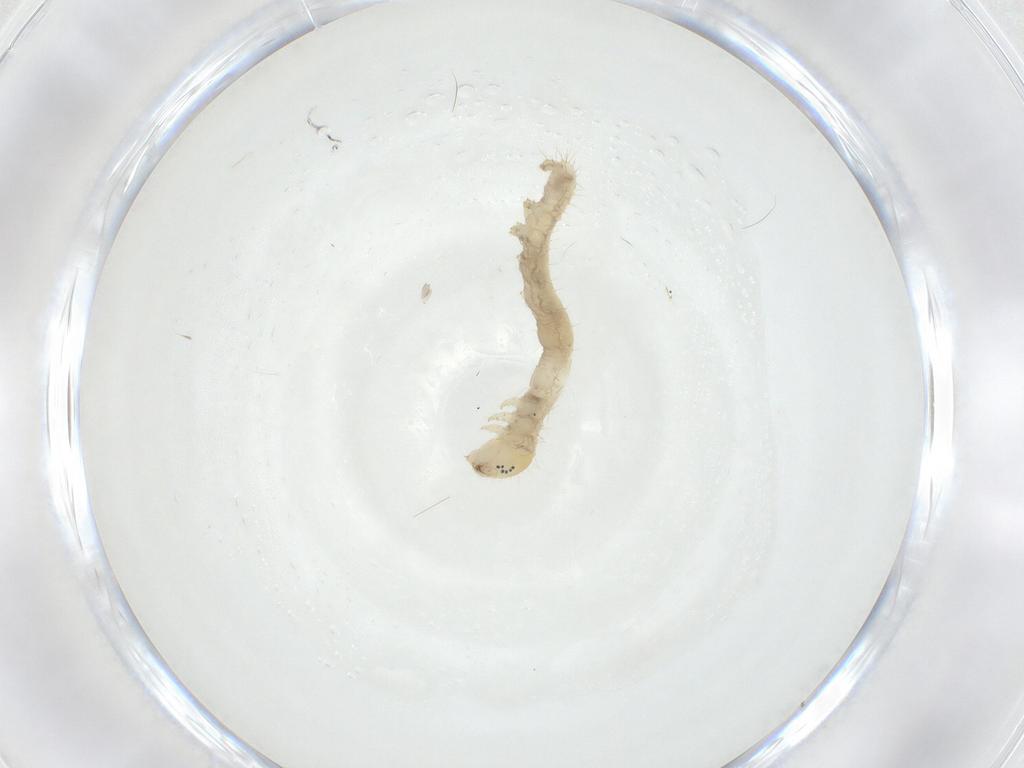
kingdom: Animalia
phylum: Arthropoda
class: Insecta
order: Lepidoptera
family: Erebidae
